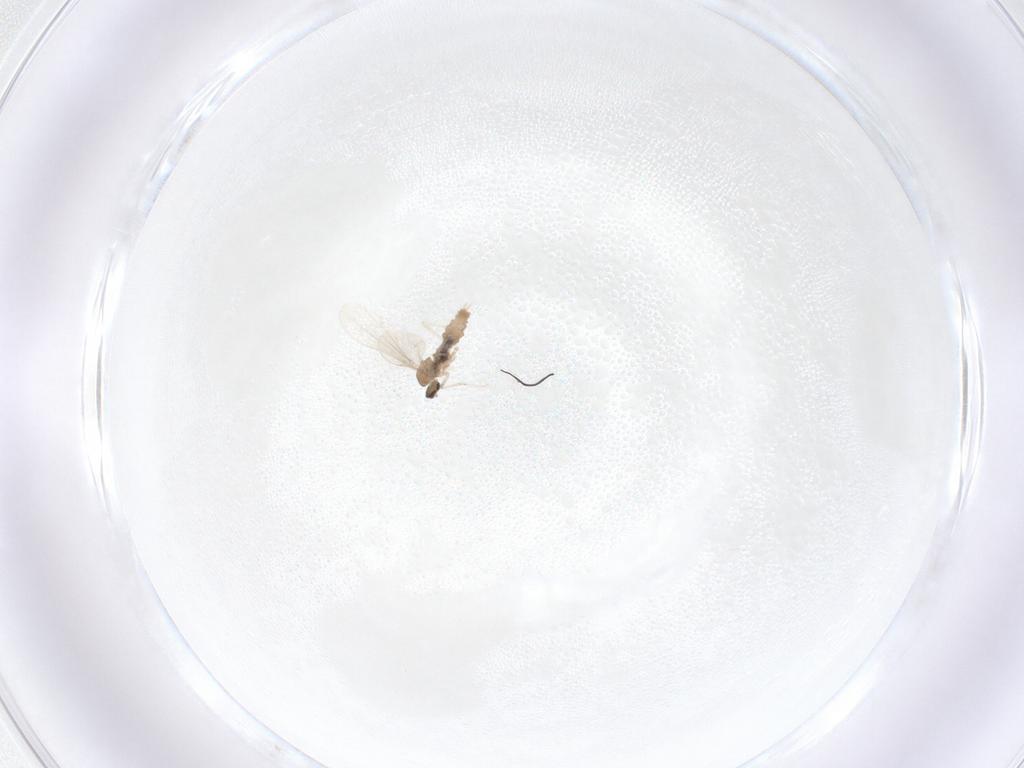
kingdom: Animalia
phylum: Arthropoda
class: Insecta
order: Diptera
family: Cecidomyiidae
